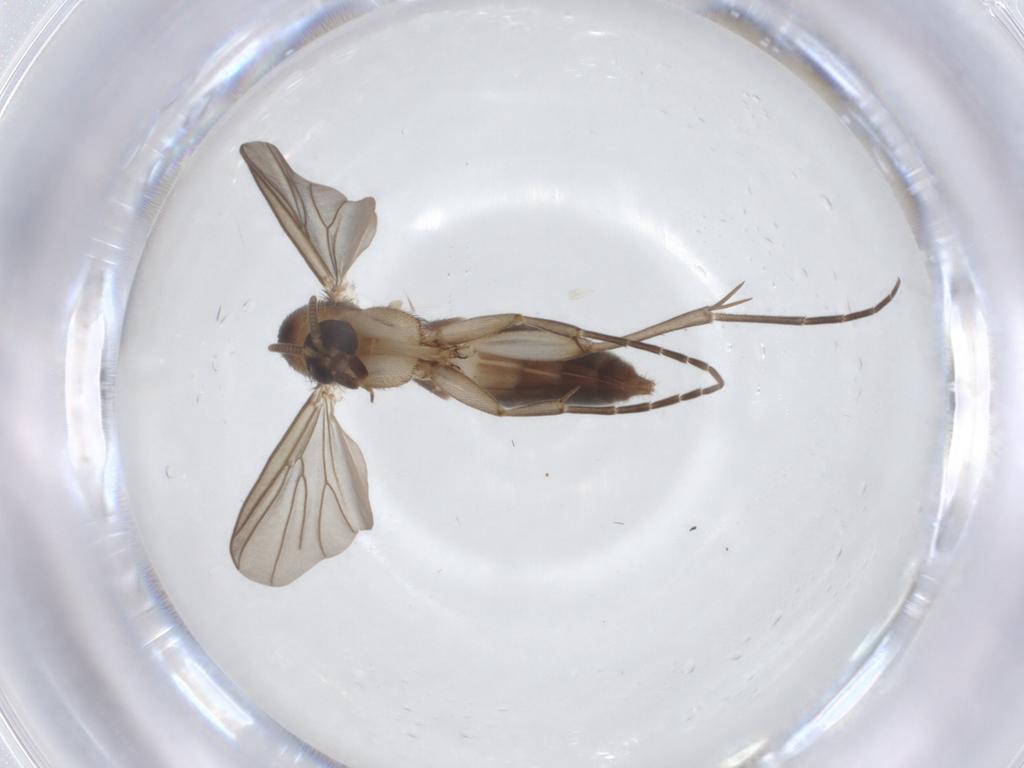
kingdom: Animalia
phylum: Arthropoda
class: Insecta
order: Diptera
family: Mycetophilidae
